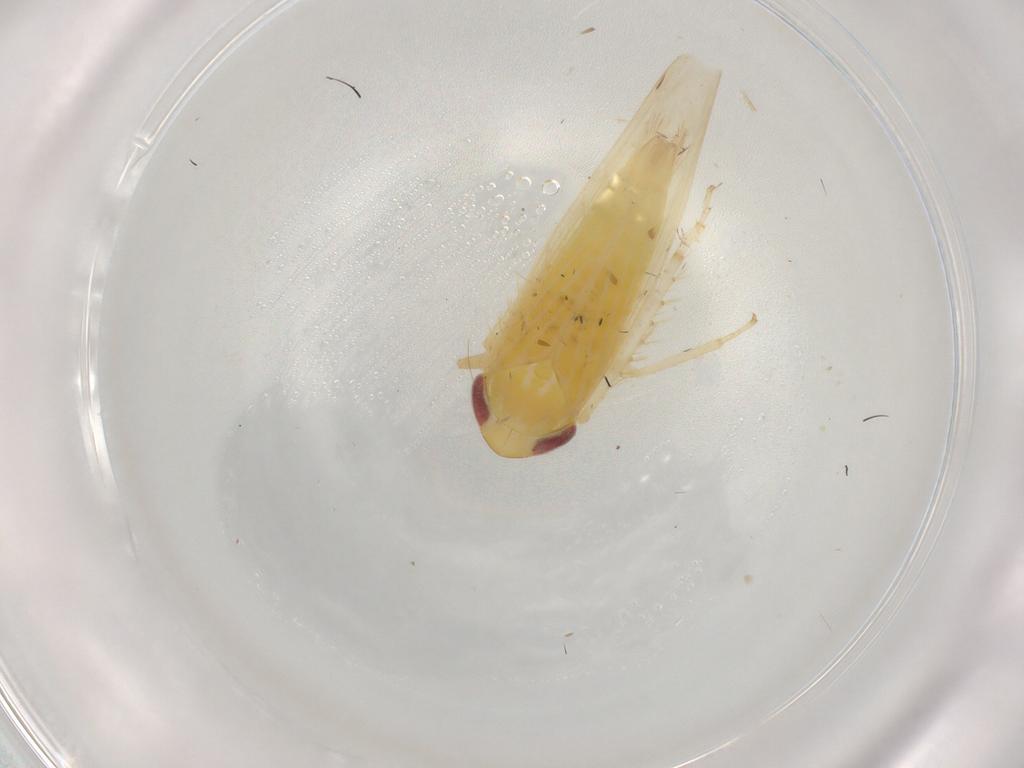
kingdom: Animalia
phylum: Arthropoda
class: Insecta
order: Hemiptera
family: Cicadellidae
